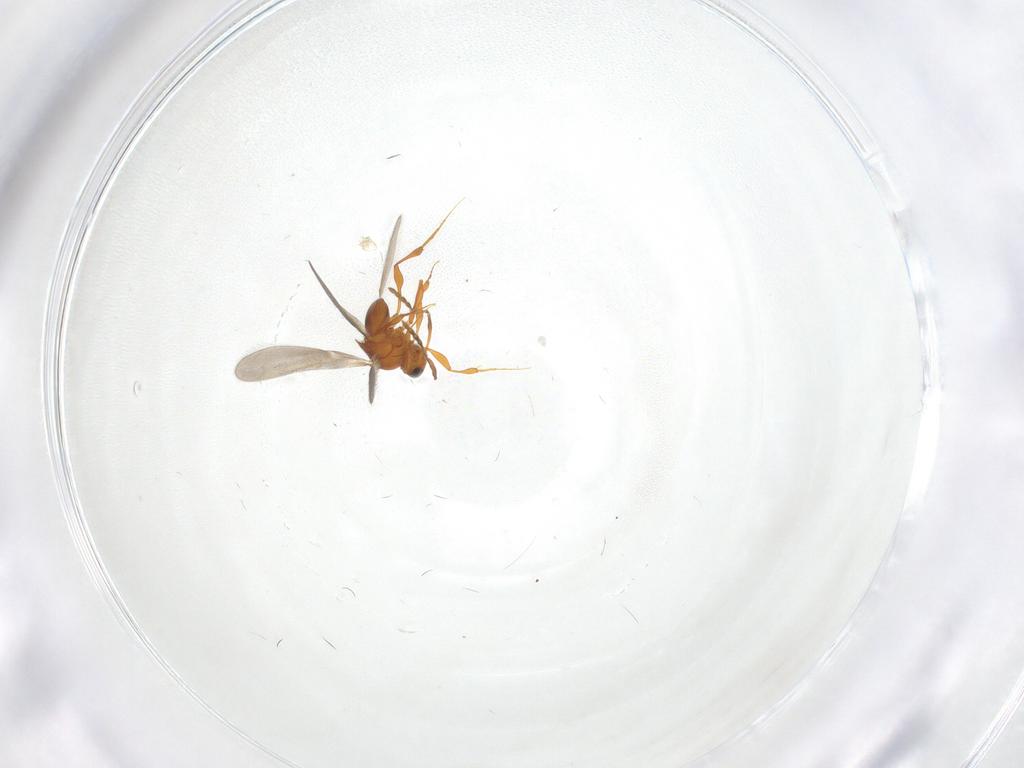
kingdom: Animalia
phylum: Arthropoda
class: Insecta
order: Hymenoptera
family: Platygastridae
